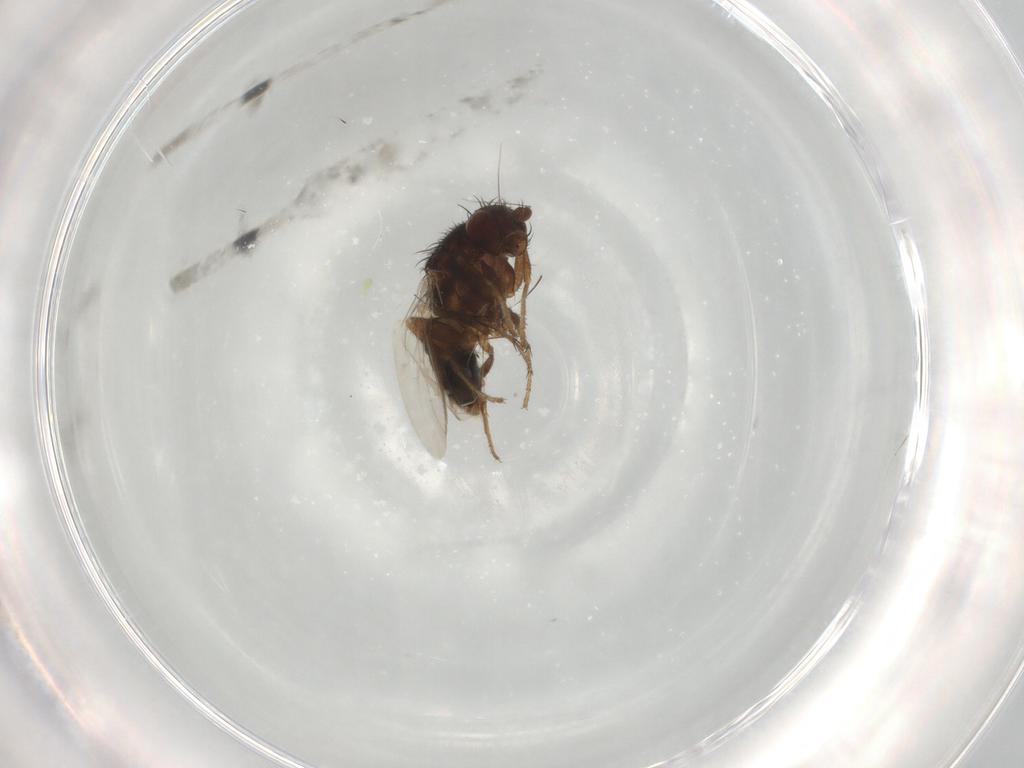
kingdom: Animalia
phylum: Arthropoda
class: Insecta
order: Diptera
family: Sphaeroceridae
